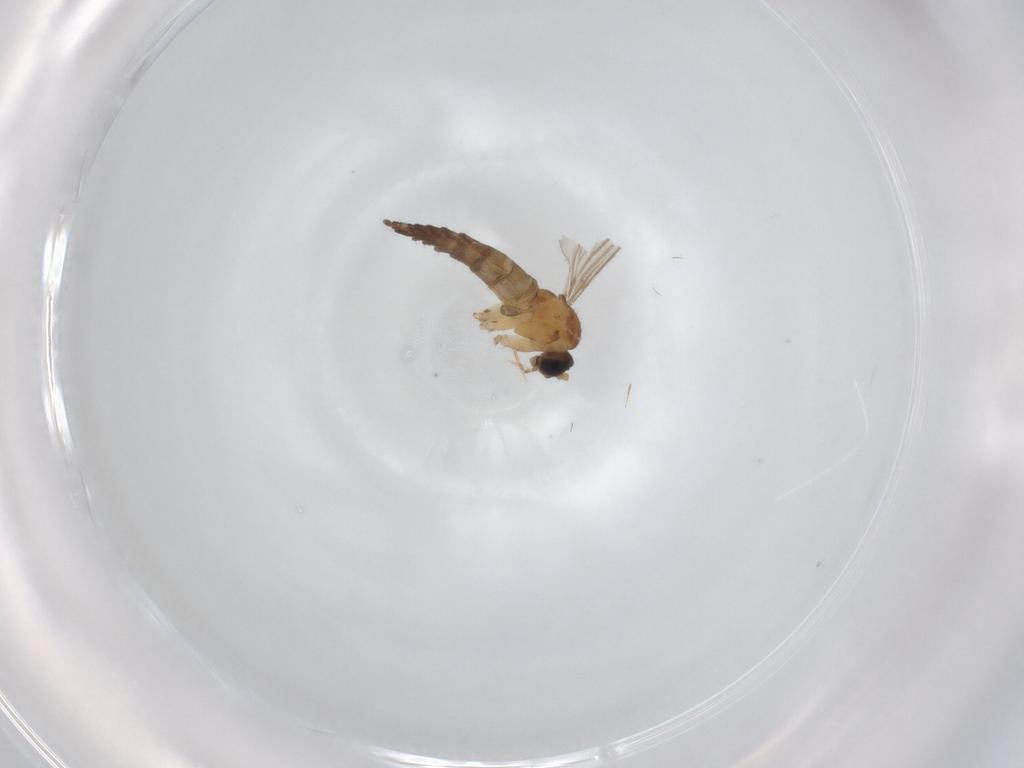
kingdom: Animalia
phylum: Arthropoda
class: Insecta
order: Diptera
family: Sciaridae
